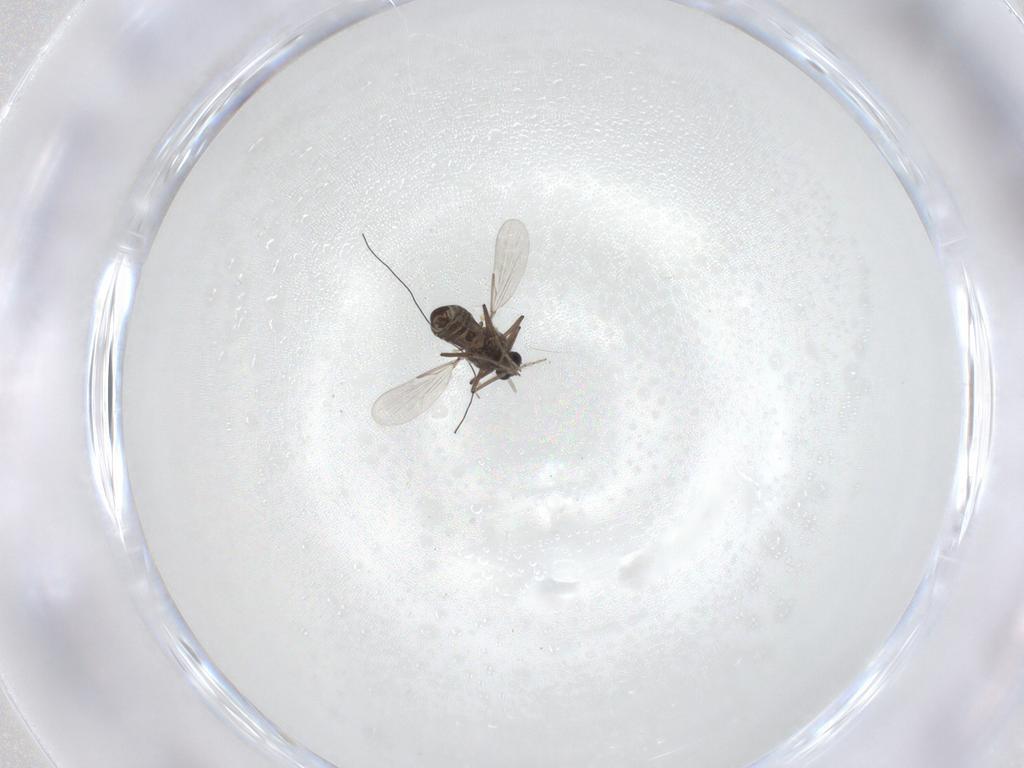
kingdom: Animalia
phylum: Arthropoda
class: Insecta
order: Diptera
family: Ceratopogonidae
